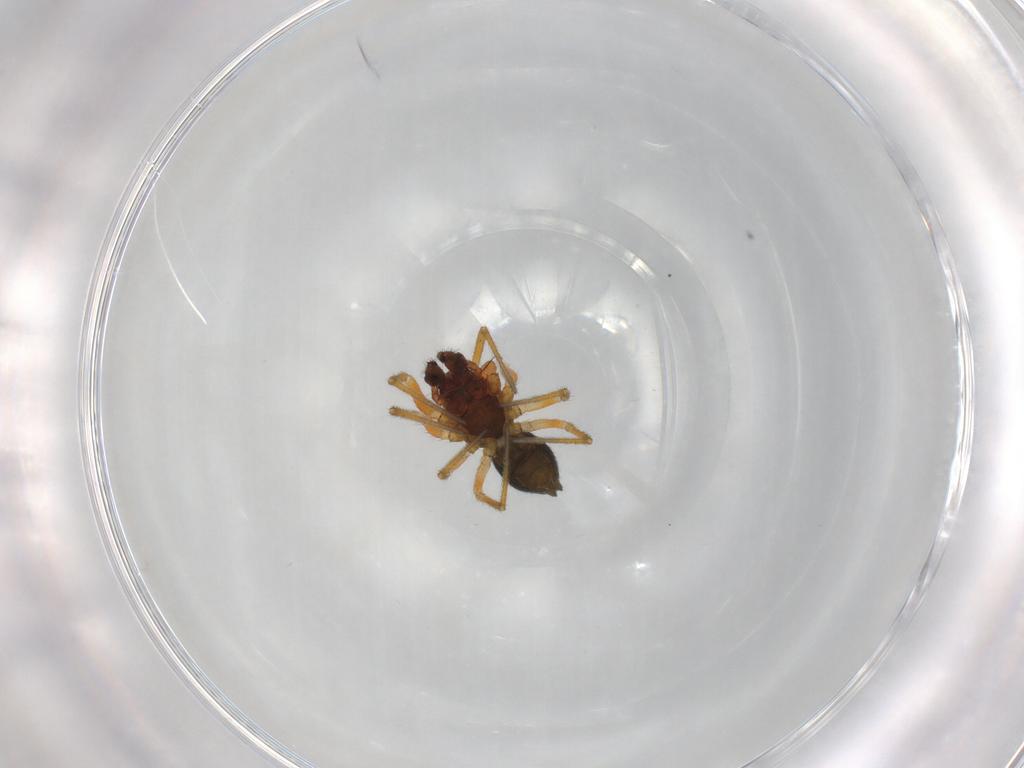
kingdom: Animalia
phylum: Arthropoda
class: Arachnida
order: Araneae
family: Linyphiidae
